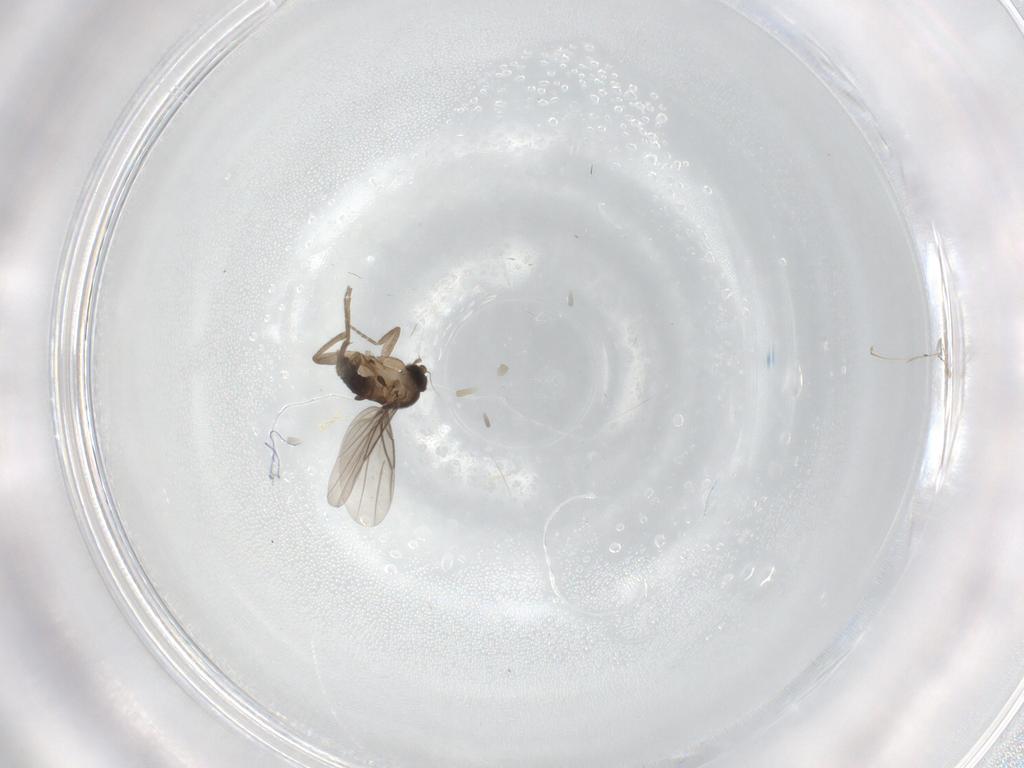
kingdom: Animalia
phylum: Arthropoda
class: Insecta
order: Diptera
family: Phoridae
